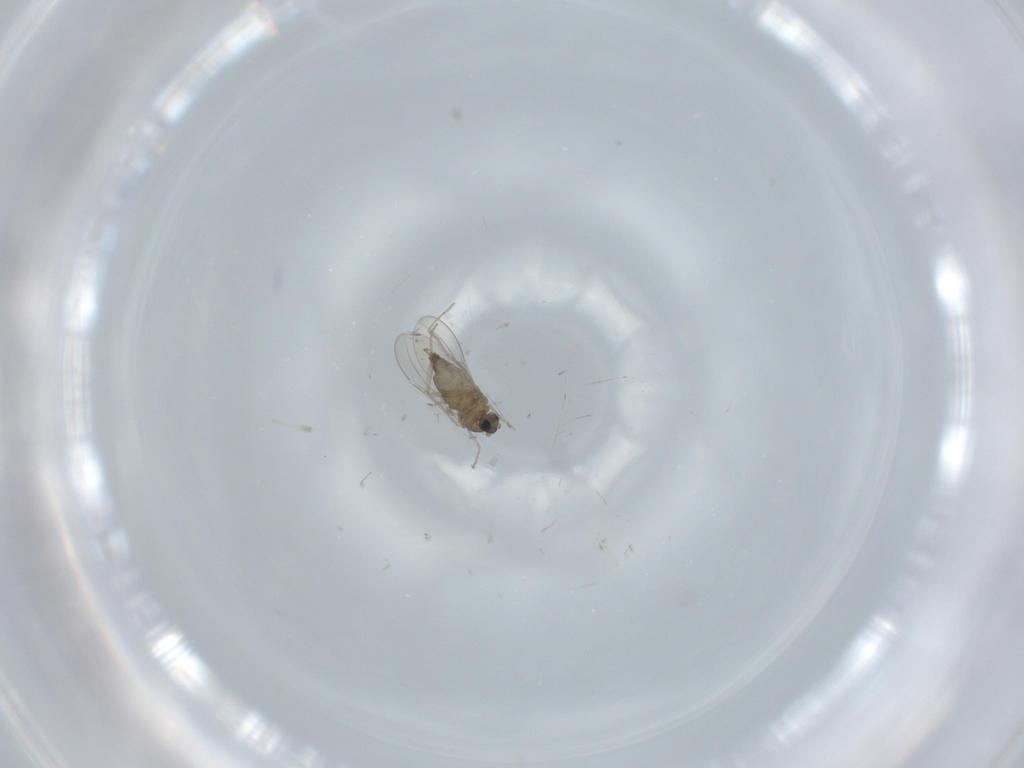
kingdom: Animalia
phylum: Arthropoda
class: Insecta
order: Diptera
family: Cecidomyiidae
